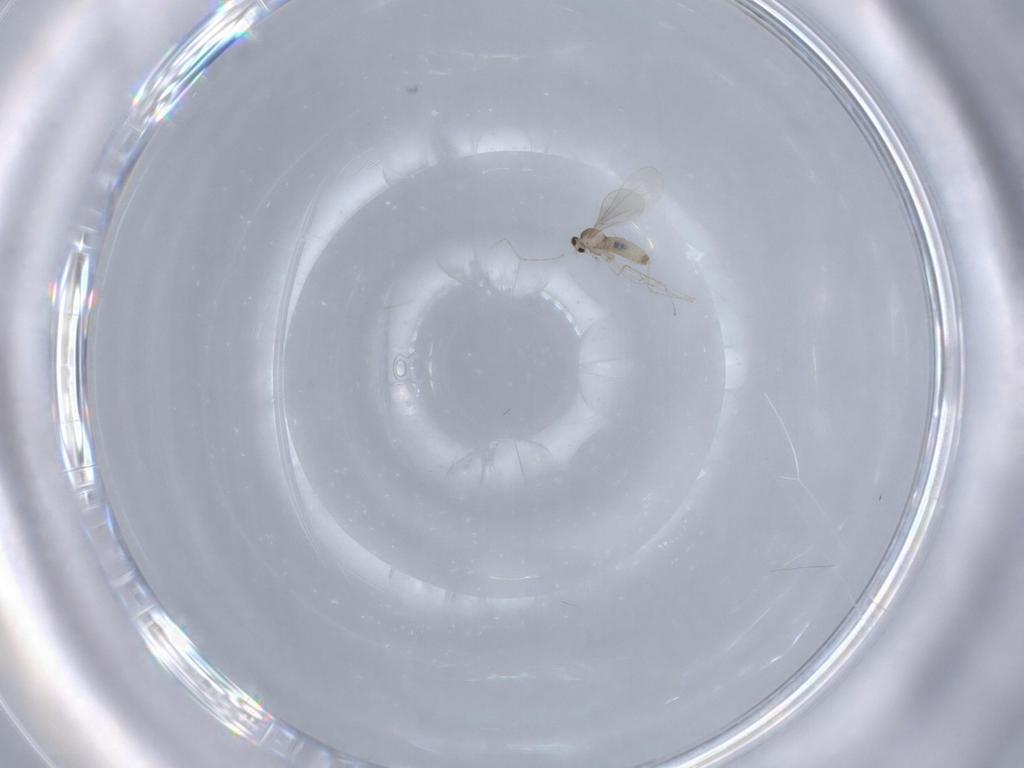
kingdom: Animalia
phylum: Arthropoda
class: Insecta
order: Diptera
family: Cecidomyiidae
